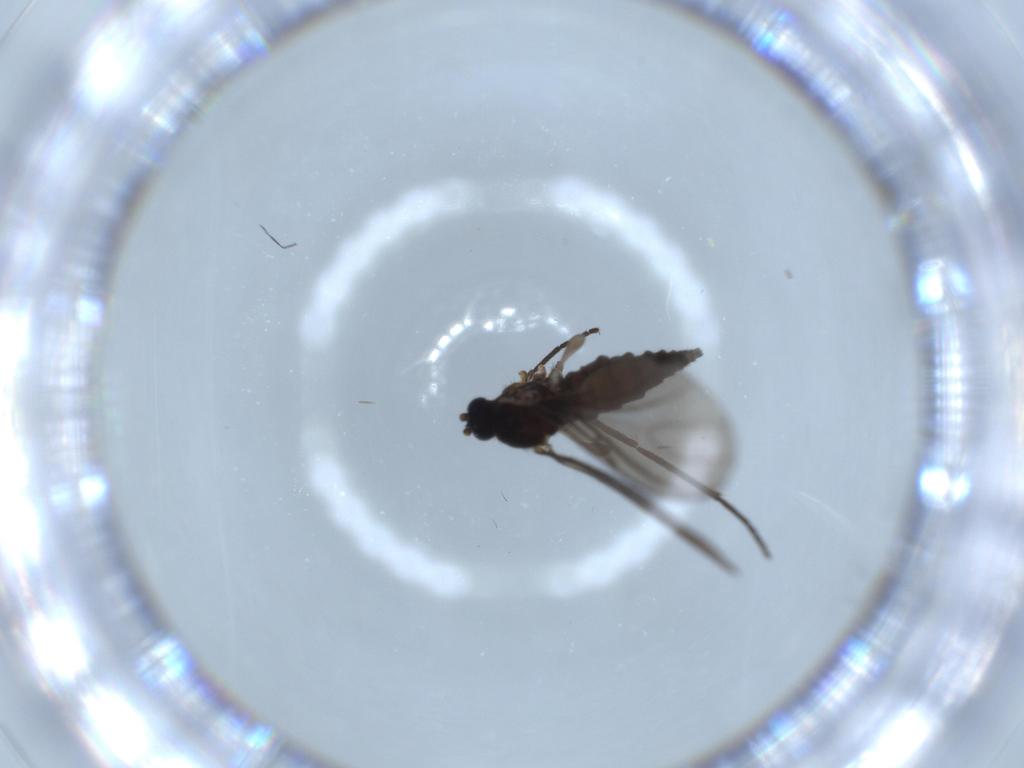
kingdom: Animalia
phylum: Arthropoda
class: Insecta
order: Diptera
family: Sciaridae
